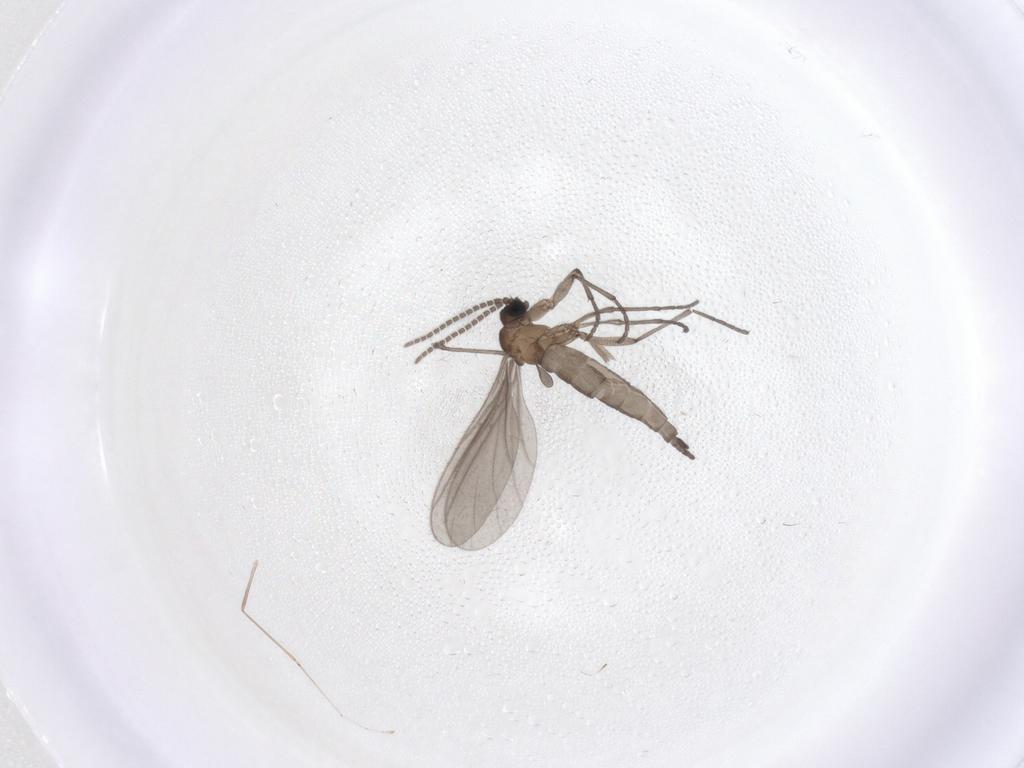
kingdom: Animalia
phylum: Arthropoda
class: Insecta
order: Diptera
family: Sciaridae
